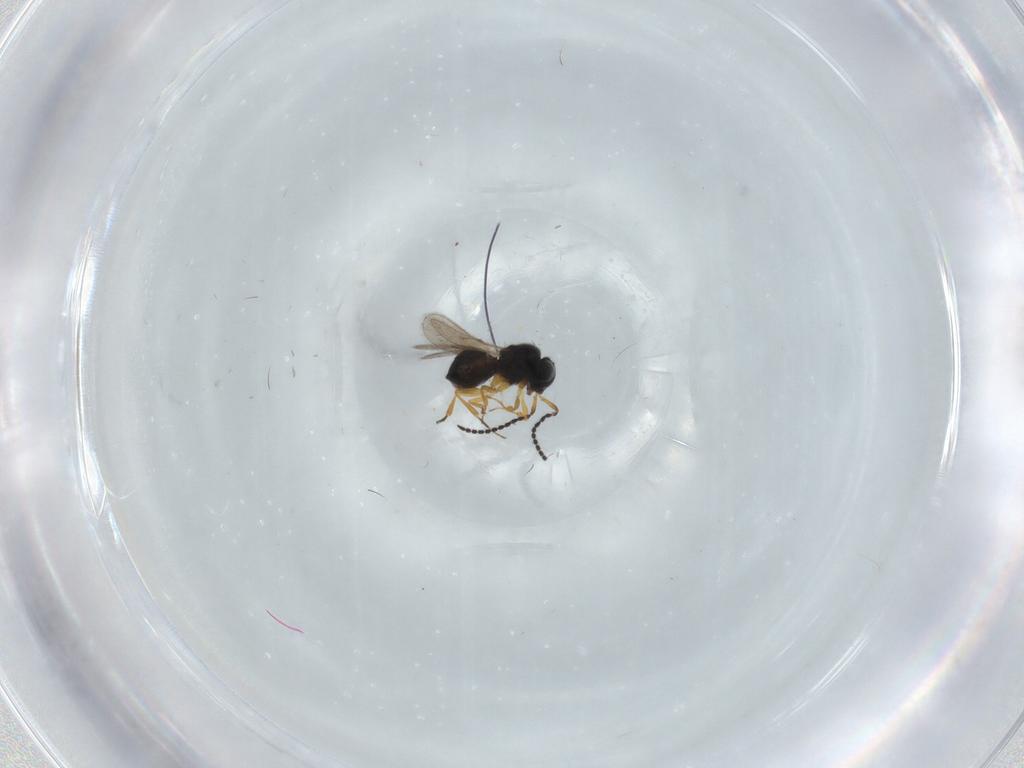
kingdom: Animalia
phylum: Arthropoda
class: Insecta
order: Hymenoptera
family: Scelionidae
